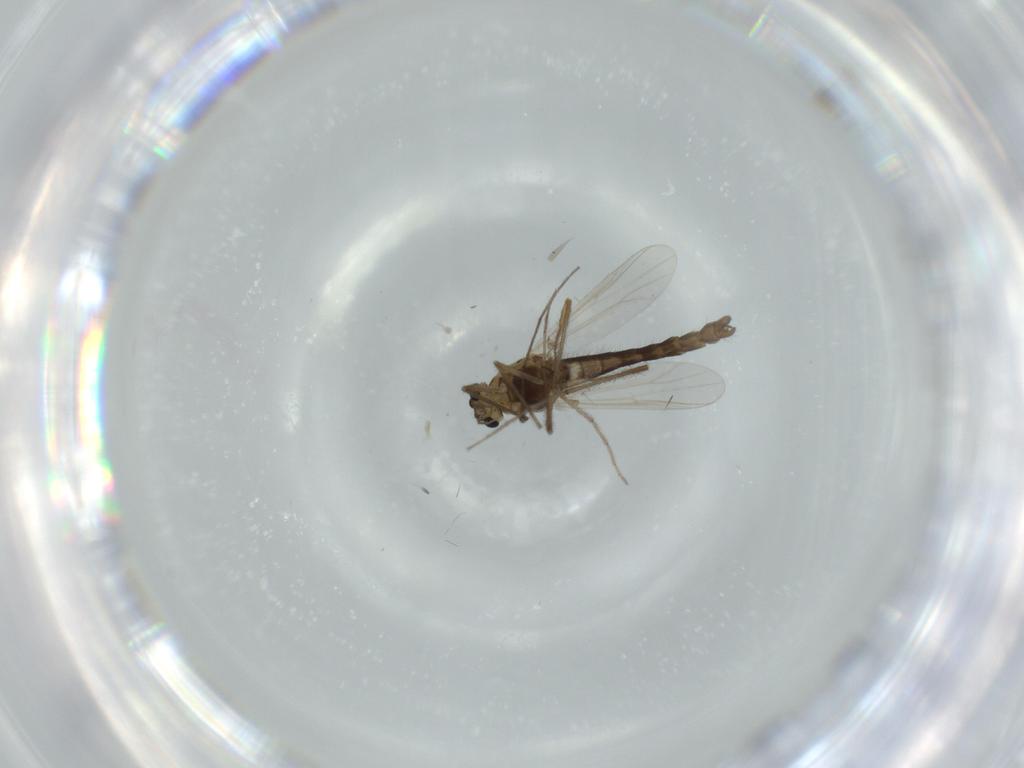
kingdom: Animalia
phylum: Arthropoda
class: Insecta
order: Diptera
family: Chironomidae
